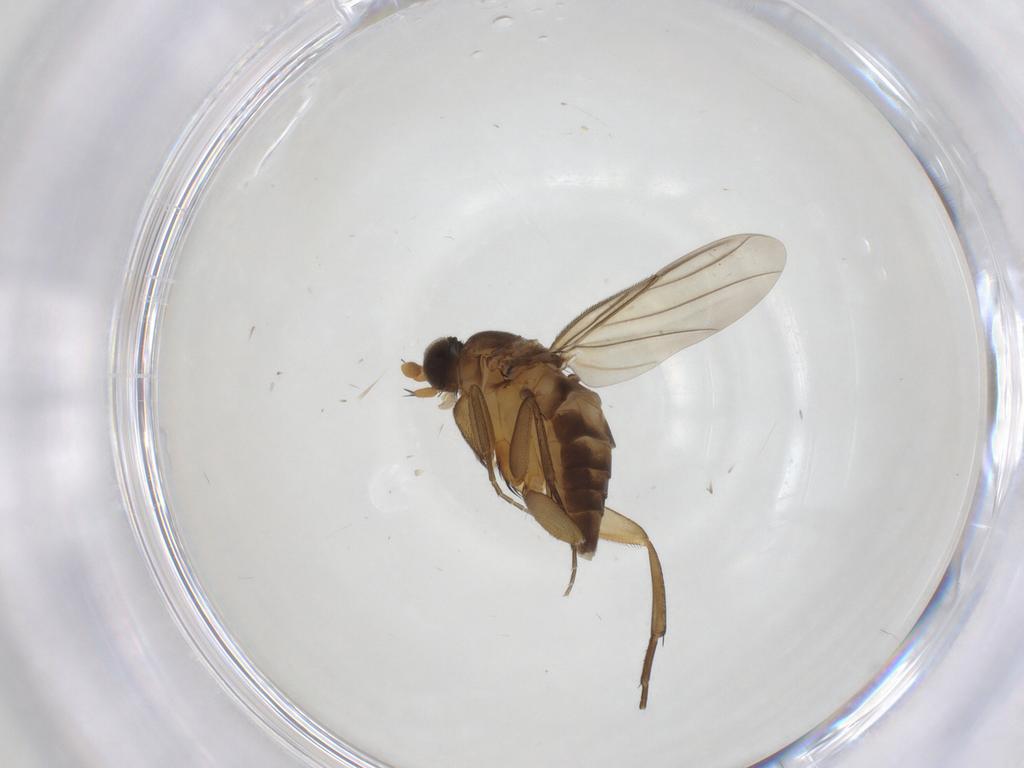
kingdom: Animalia
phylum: Arthropoda
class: Insecta
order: Diptera
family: Phoridae
